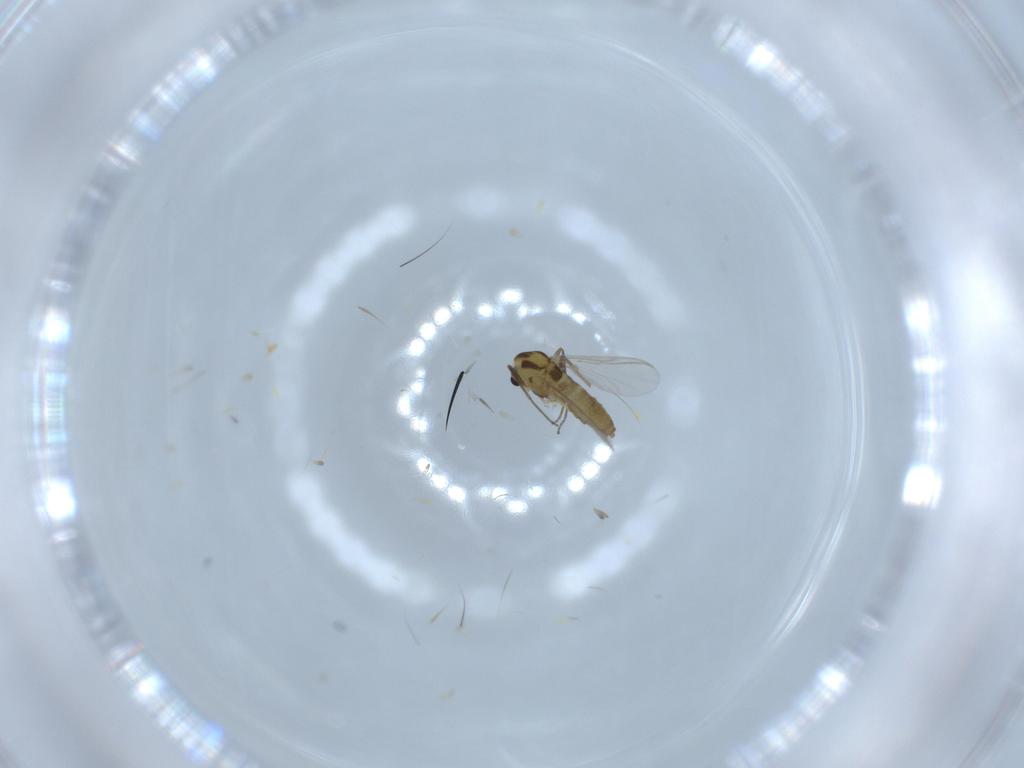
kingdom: Animalia
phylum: Arthropoda
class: Insecta
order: Diptera
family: Chironomidae
